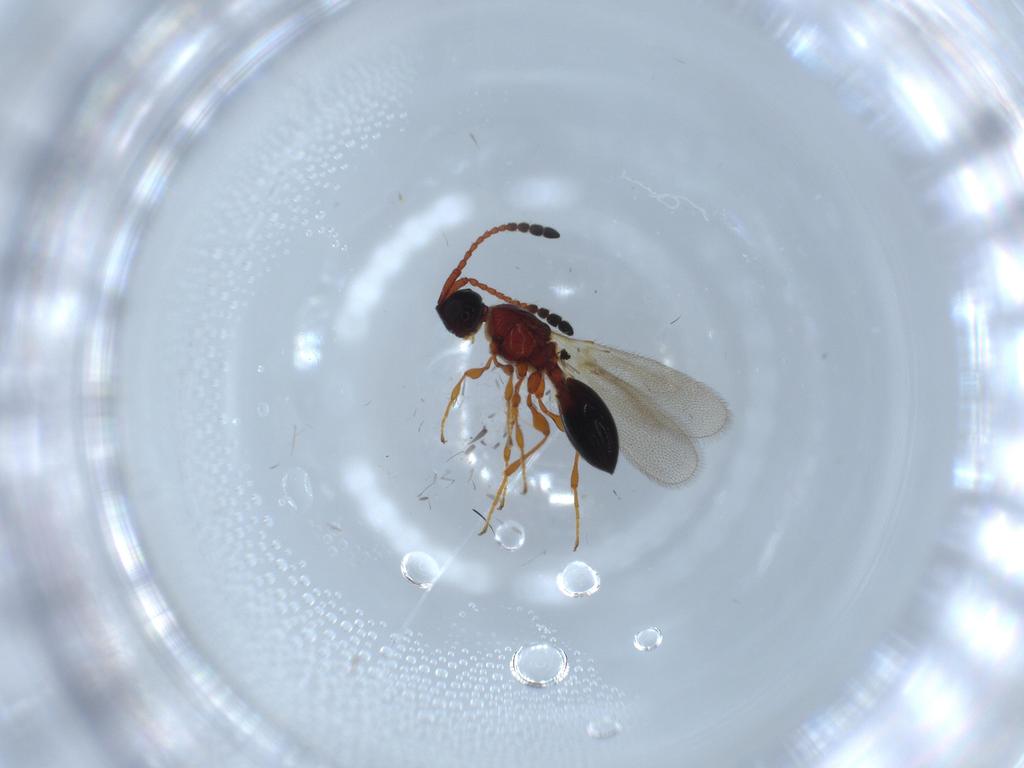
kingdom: Animalia
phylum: Arthropoda
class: Insecta
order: Hymenoptera
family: Diapriidae
